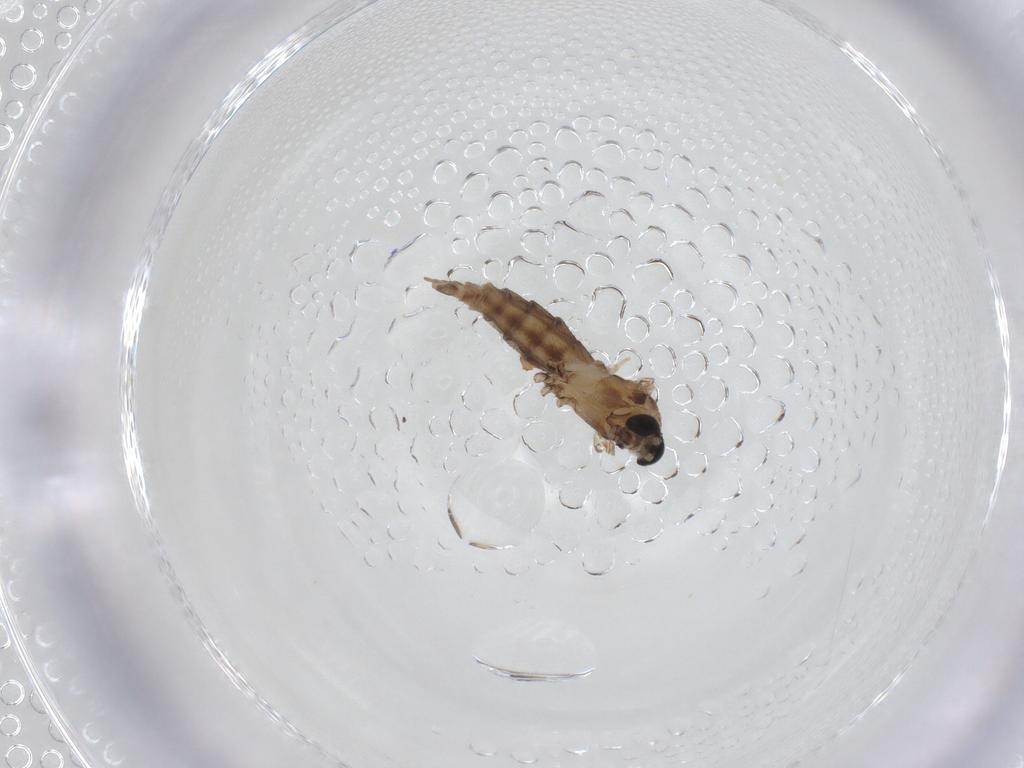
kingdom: Animalia
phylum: Arthropoda
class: Insecta
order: Diptera
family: Sciaridae
